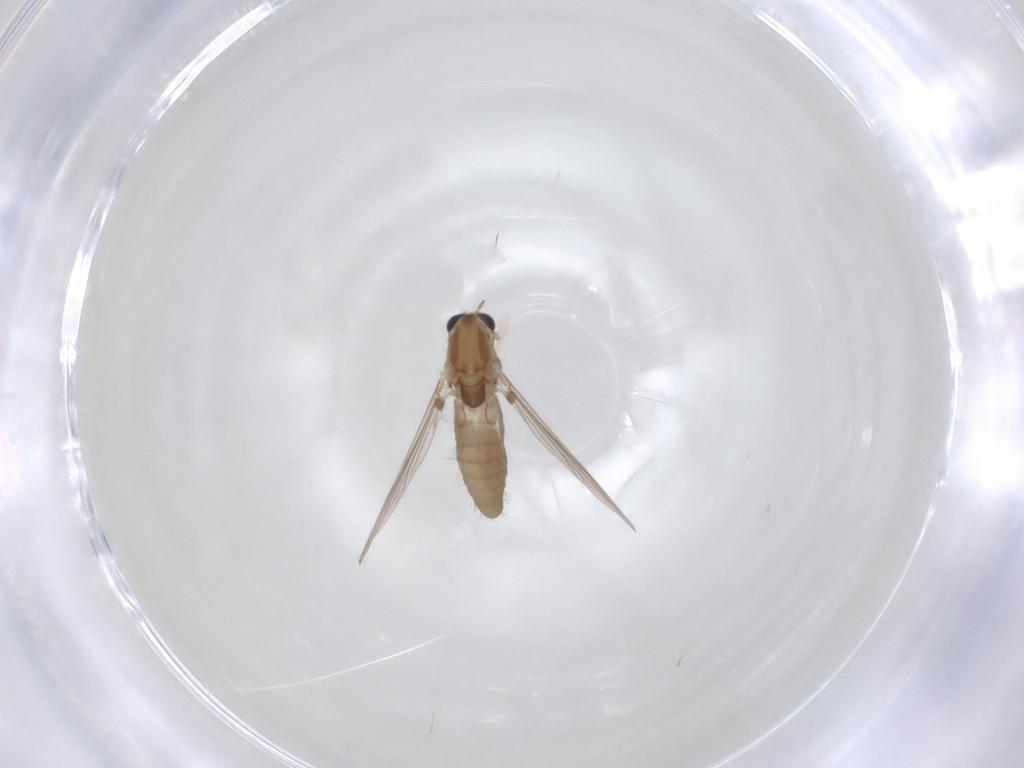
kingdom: Animalia
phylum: Arthropoda
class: Insecta
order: Diptera
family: Chironomidae
